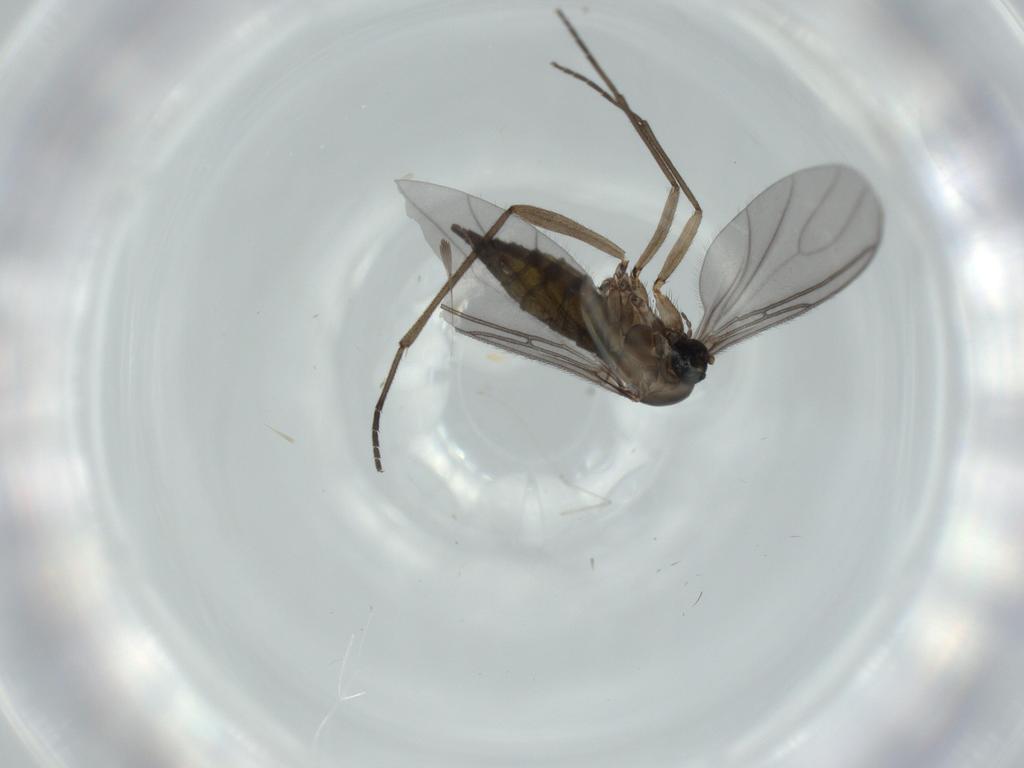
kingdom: Animalia
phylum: Arthropoda
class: Insecta
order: Diptera
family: Sciaridae
